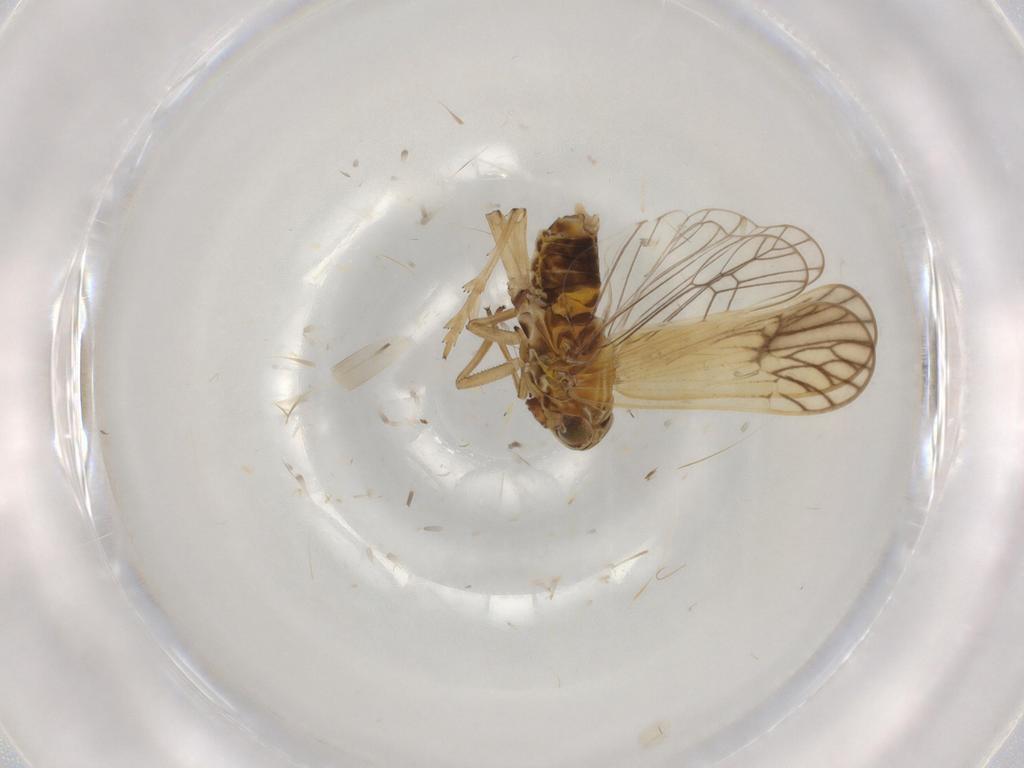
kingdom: Animalia
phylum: Arthropoda
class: Insecta
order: Hemiptera
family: Delphacidae
